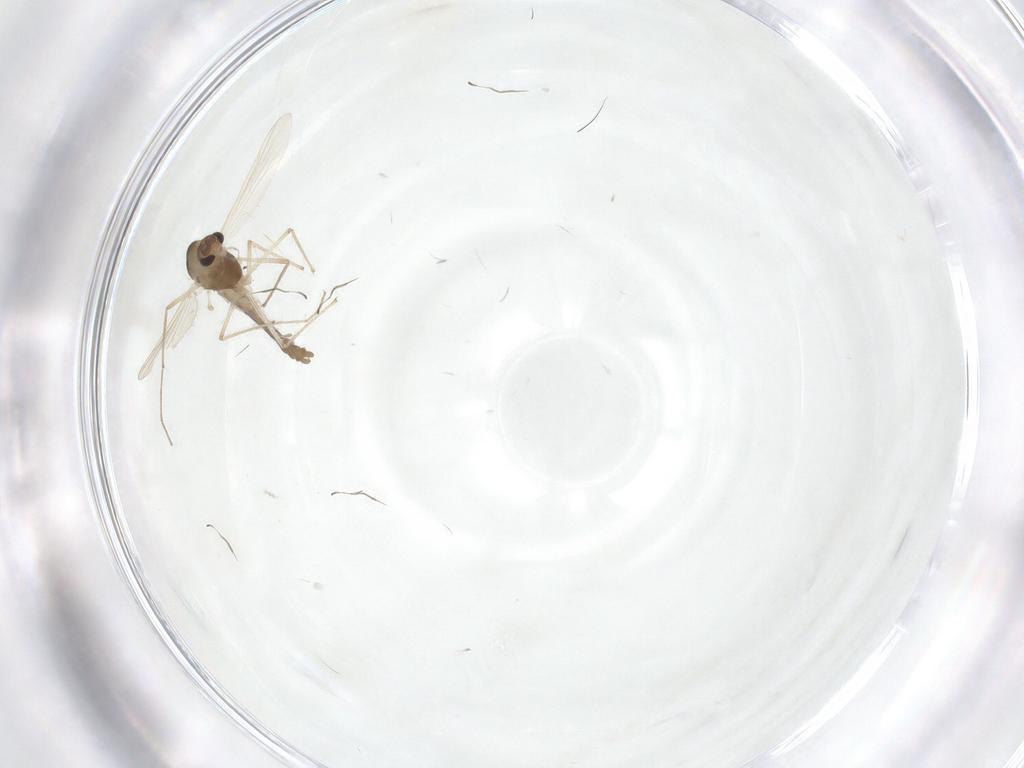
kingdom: Animalia
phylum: Arthropoda
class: Insecta
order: Diptera
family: Chironomidae
